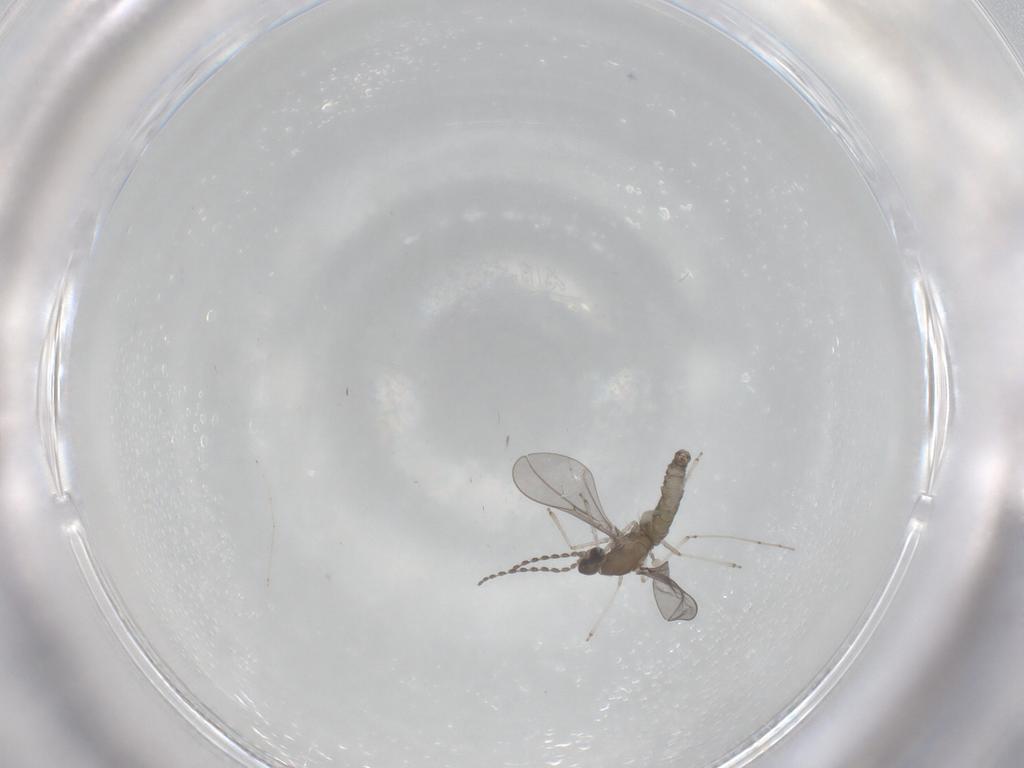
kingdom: Animalia
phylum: Arthropoda
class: Insecta
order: Diptera
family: Cecidomyiidae
